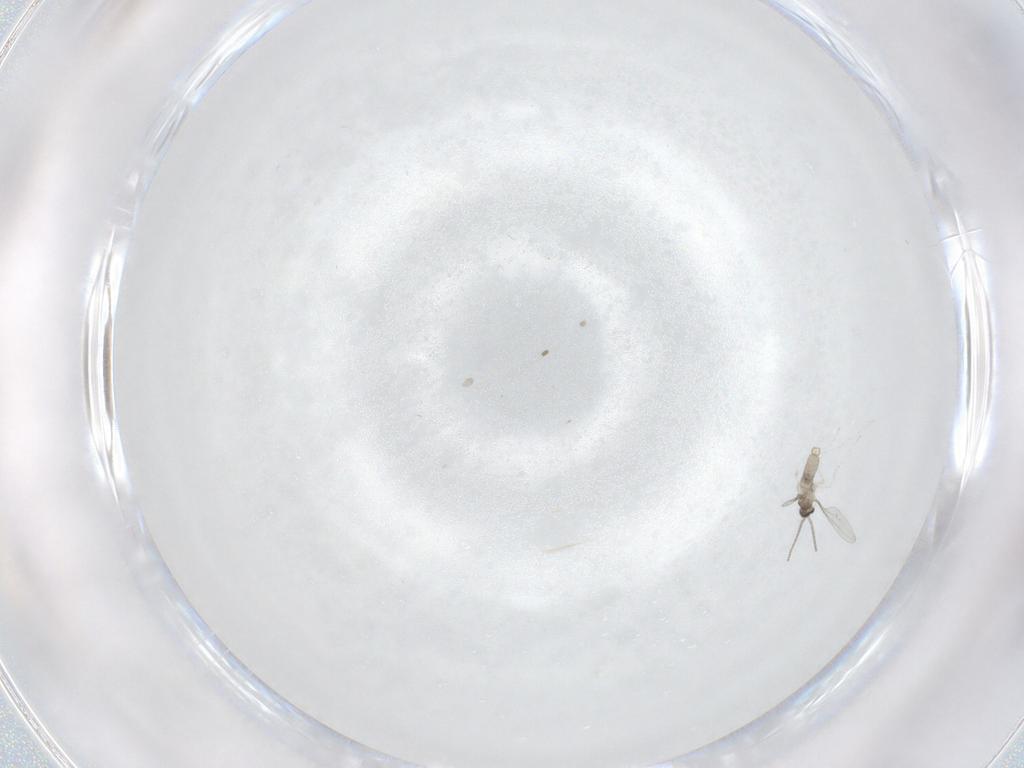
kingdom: Animalia
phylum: Arthropoda
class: Insecta
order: Diptera
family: Cecidomyiidae
